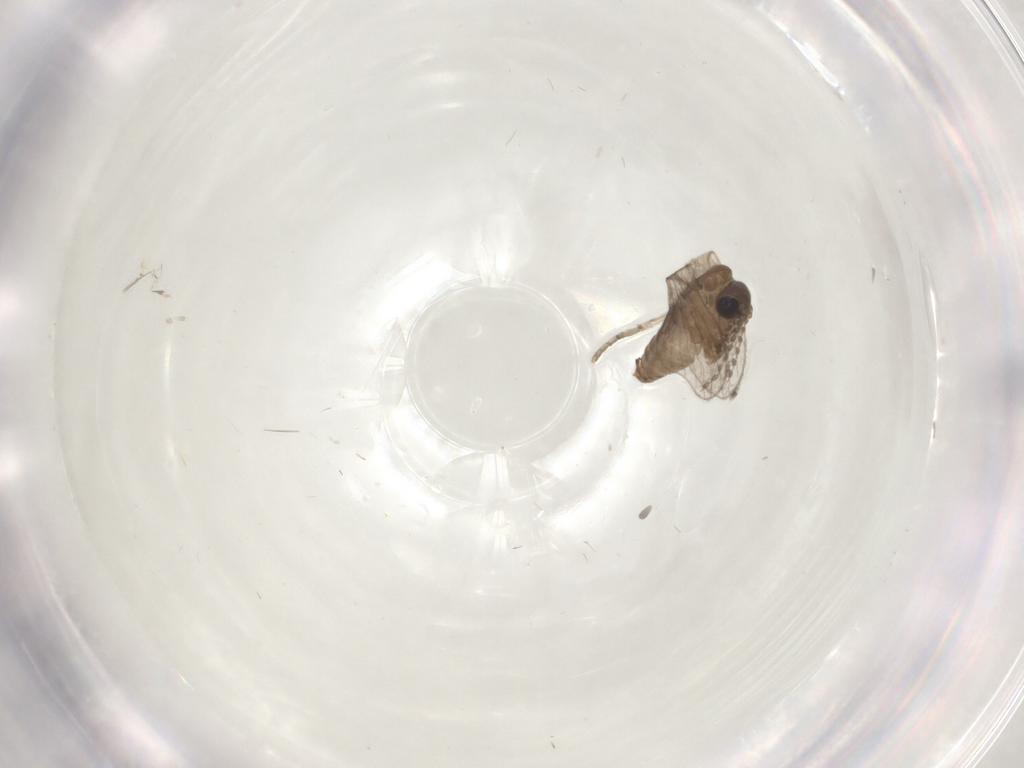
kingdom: Animalia
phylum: Arthropoda
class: Insecta
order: Diptera
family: Psychodidae
